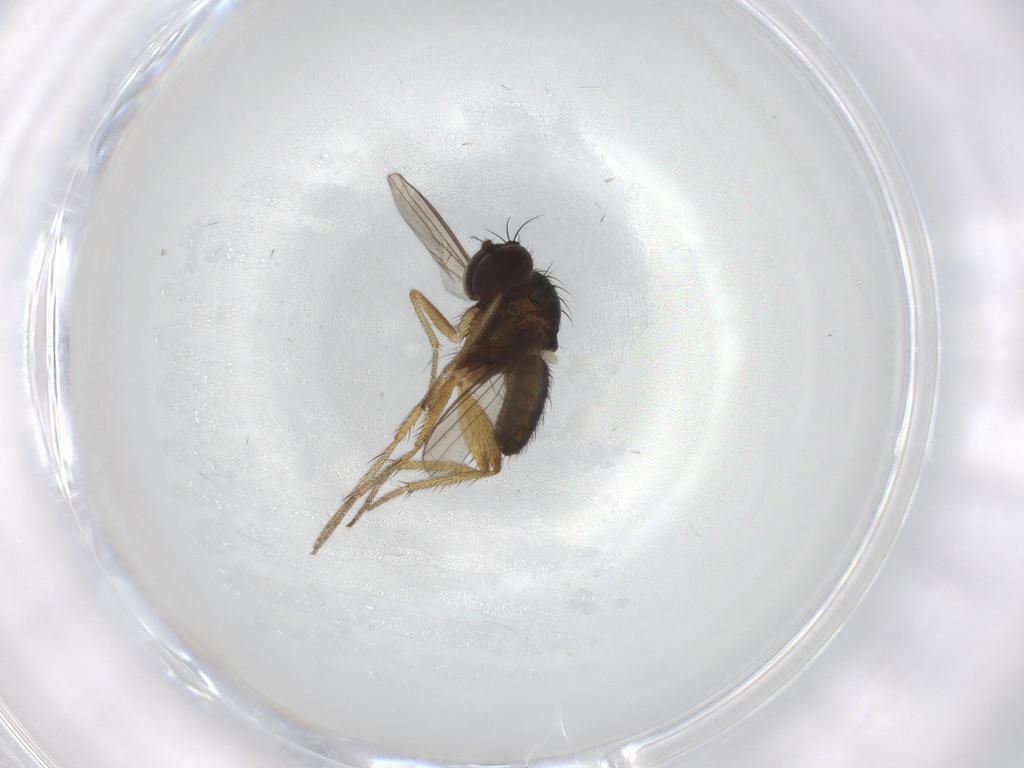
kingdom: Animalia
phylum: Arthropoda
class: Insecta
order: Diptera
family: Dolichopodidae
